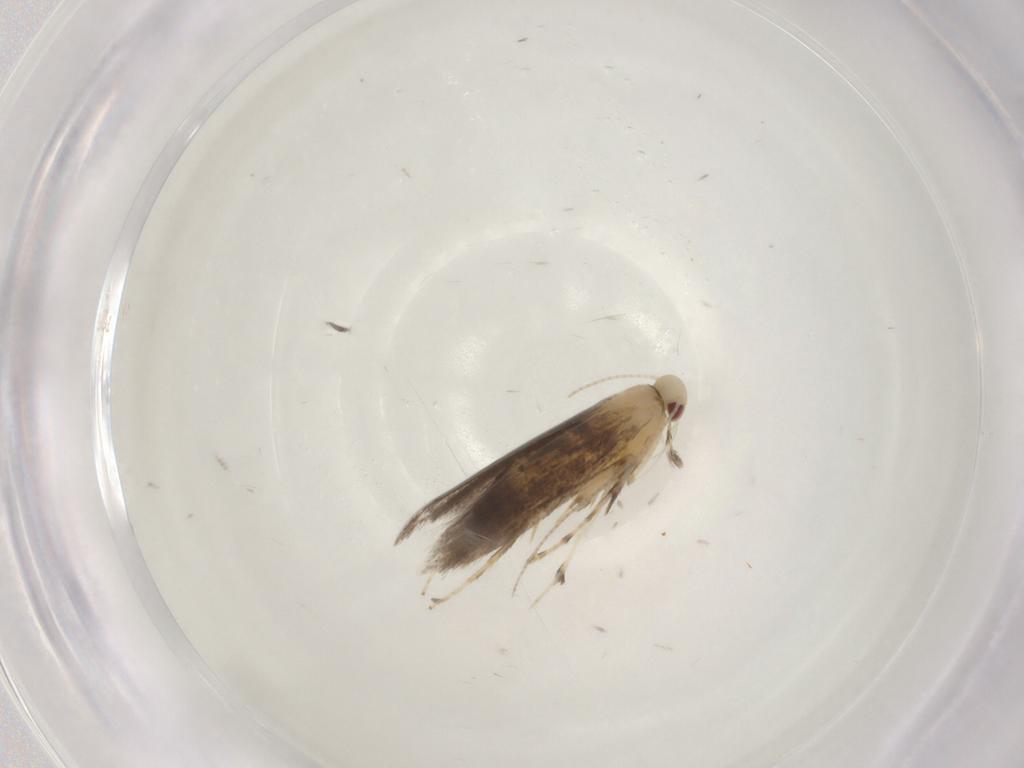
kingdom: Animalia
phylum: Arthropoda
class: Insecta
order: Lepidoptera
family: Gracillariidae
